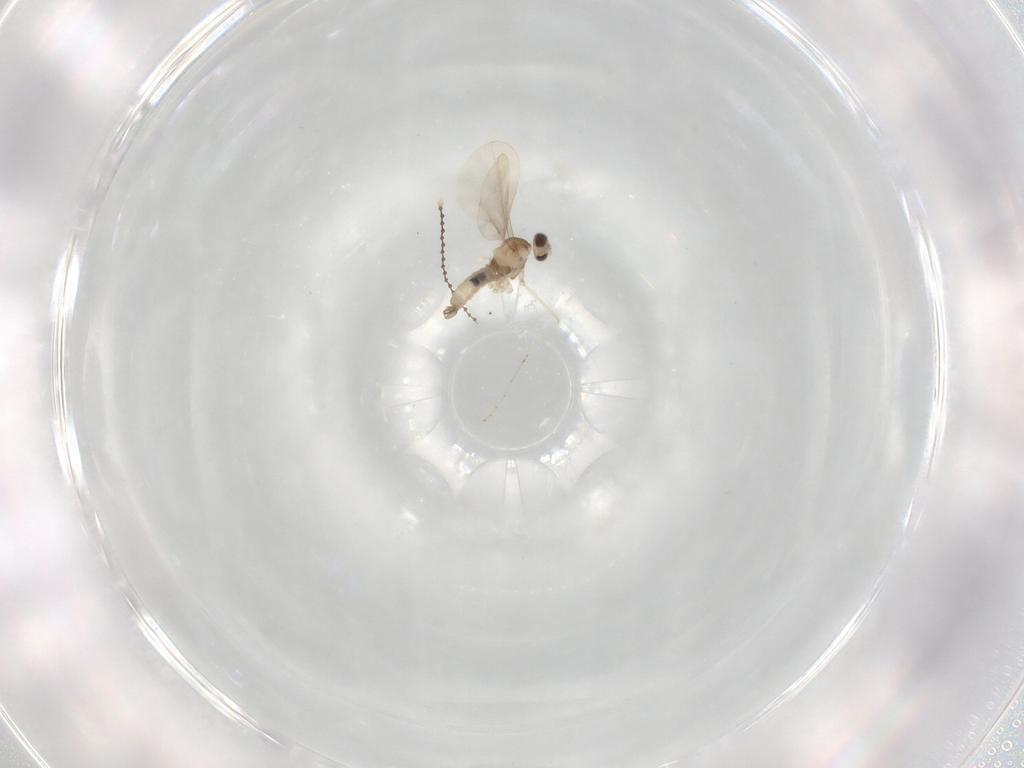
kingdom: Animalia
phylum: Arthropoda
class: Insecta
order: Diptera
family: Cecidomyiidae
